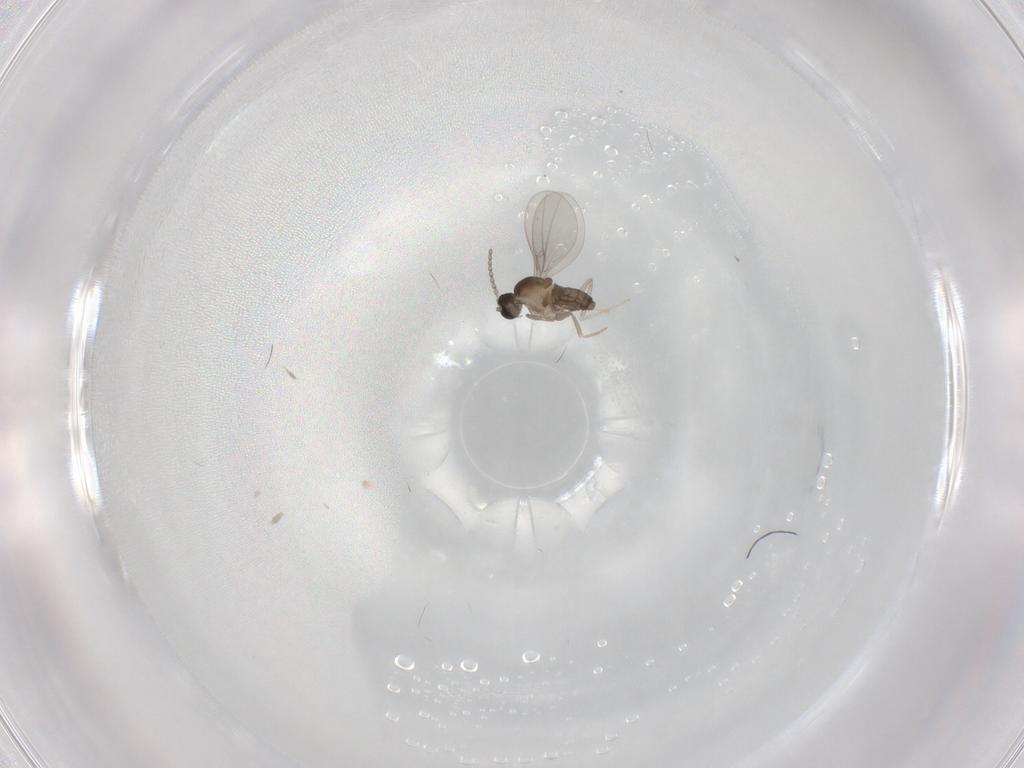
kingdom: Animalia
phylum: Arthropoda
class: Insecta
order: Diptera
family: Cecidomyiidae
